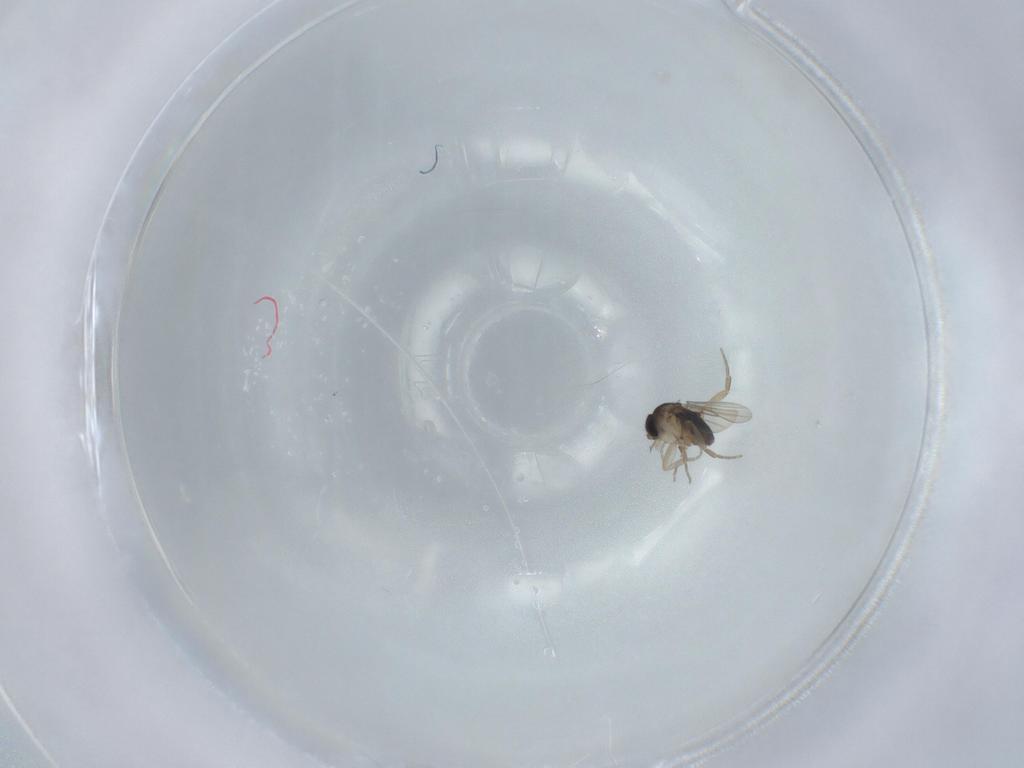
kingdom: Animalia
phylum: Arthropoda
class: Insecta
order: Diptera
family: Phoridae
